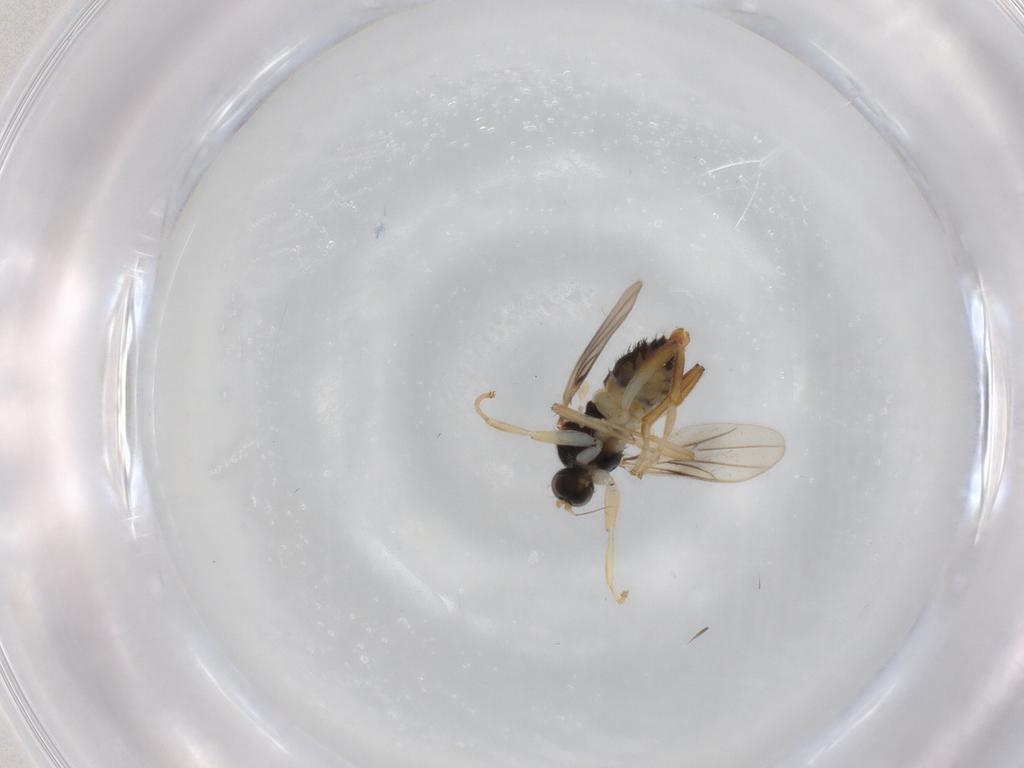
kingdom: Animalia
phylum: Arthropoda
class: Insecta
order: Diptera
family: Hybotidae
